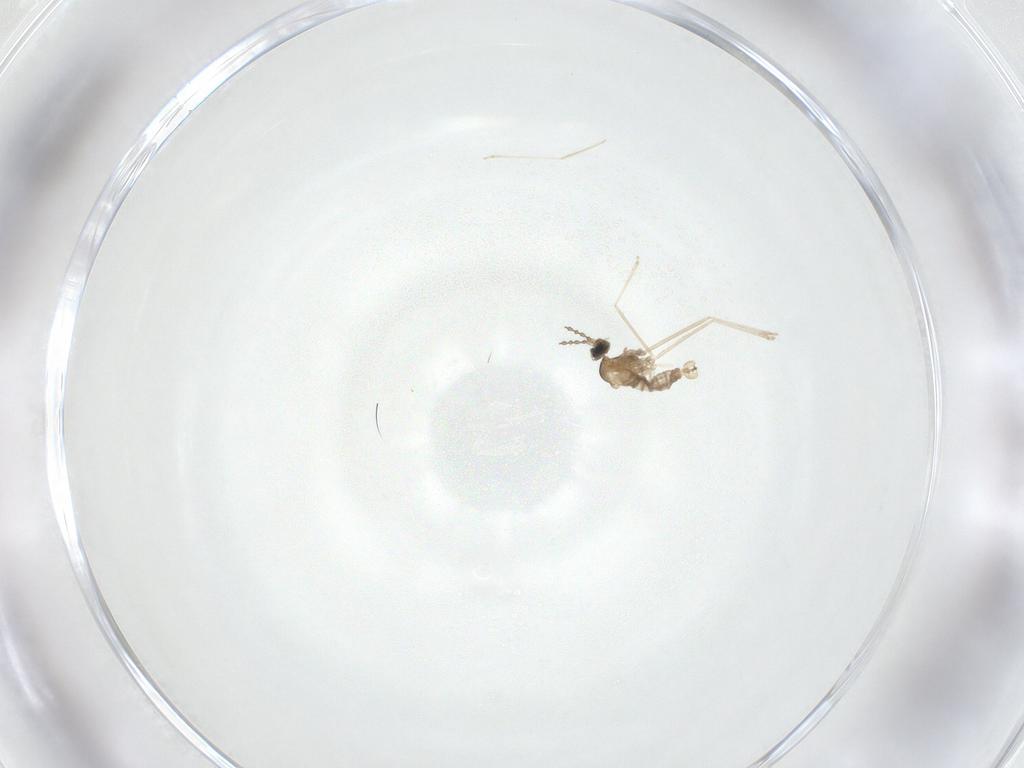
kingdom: Animalia
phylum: Arthropoda
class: Insecta
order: Diptera
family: Cecidomyiidae
